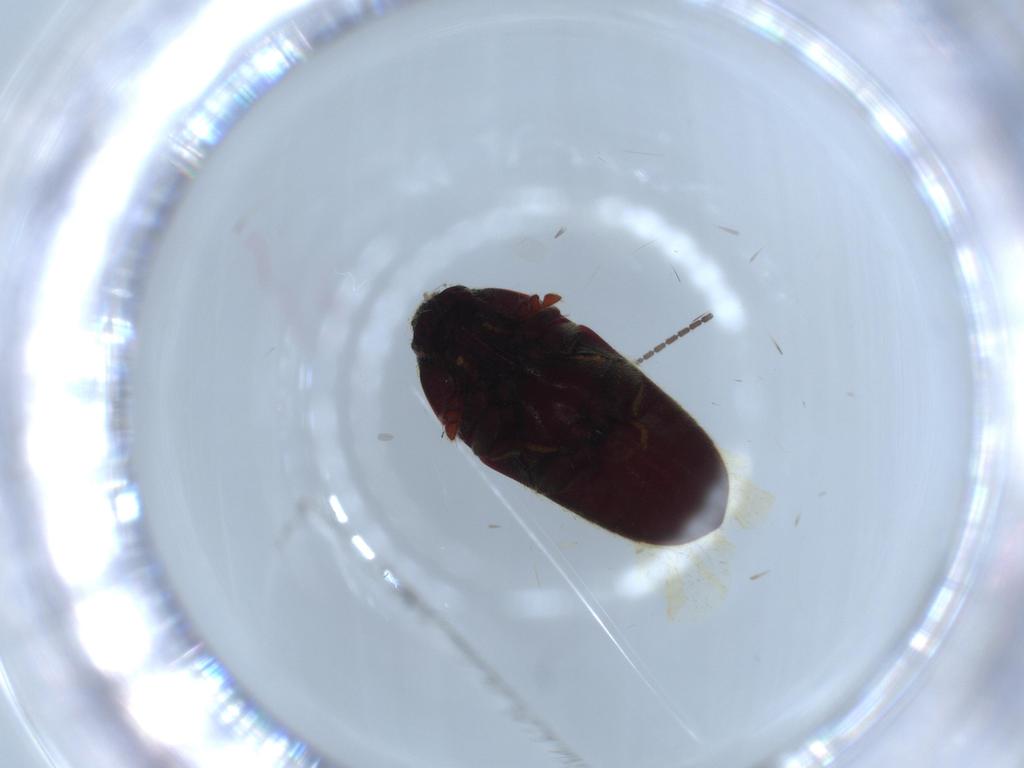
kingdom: Animalia
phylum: Arthropoda
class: Insecta
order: Coleoptera
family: Throscidae
